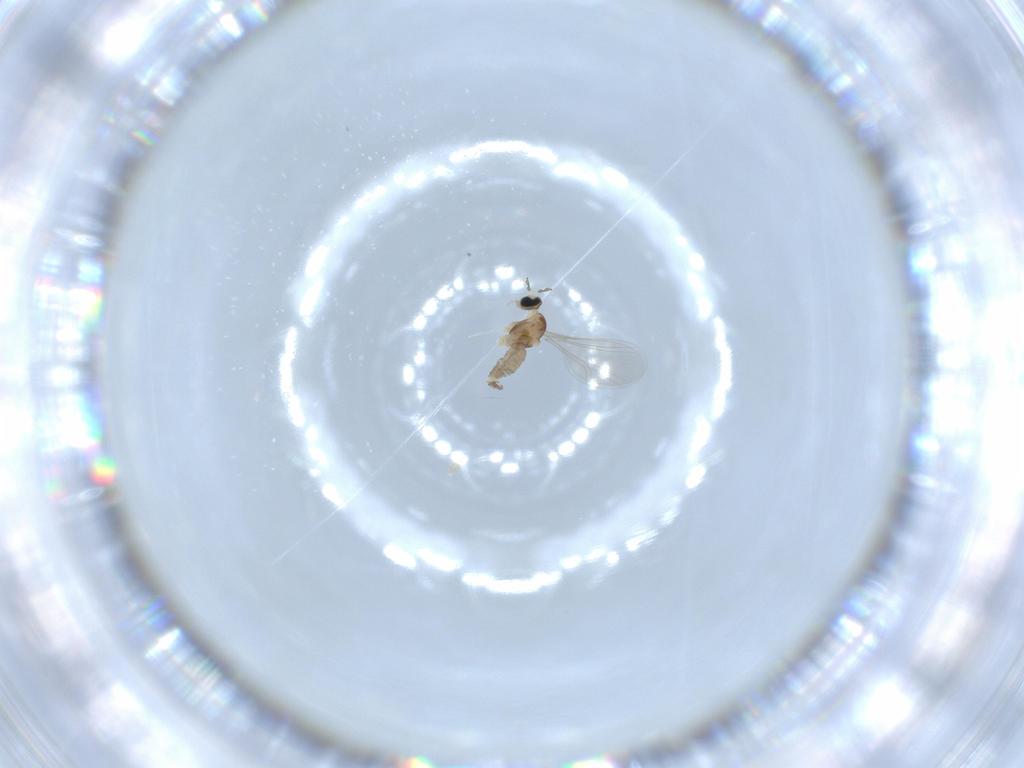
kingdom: Animalia
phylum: Arthropoda
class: Insecta
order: Diptera
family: Cecidomyiidae
